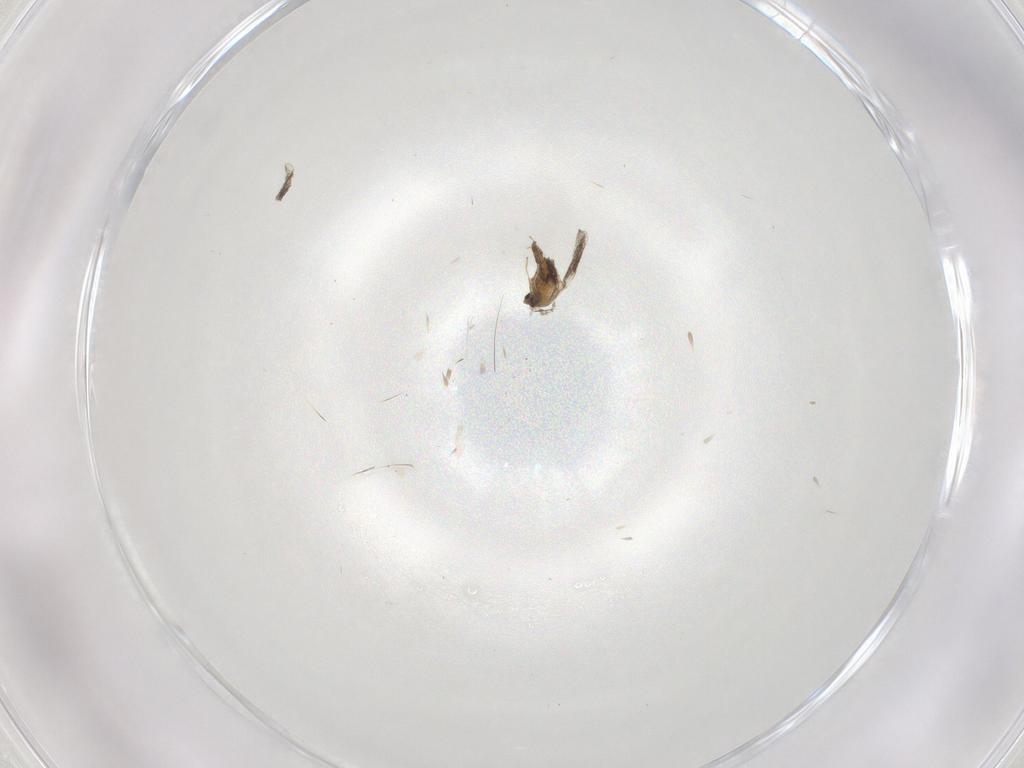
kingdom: Animalia
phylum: Arthropoda
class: Insecta
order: Diptera
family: Cecidomyiidae
